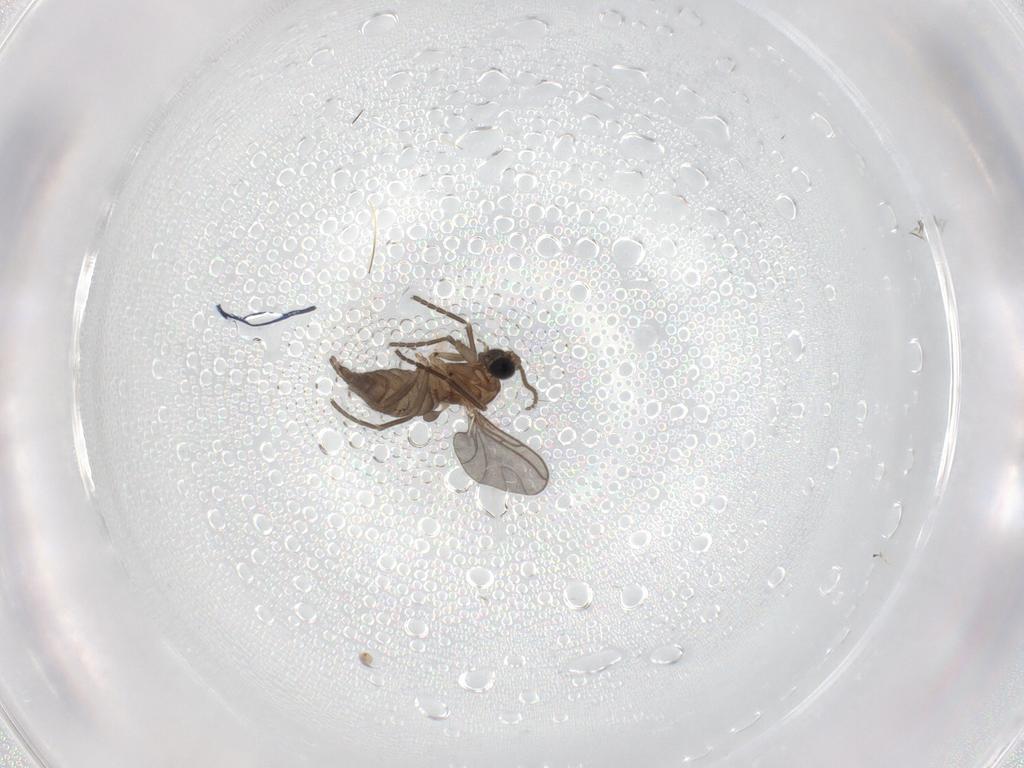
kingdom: Animalia
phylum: Arthropoda
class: Insecta
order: Diptera
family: Sciaridae
